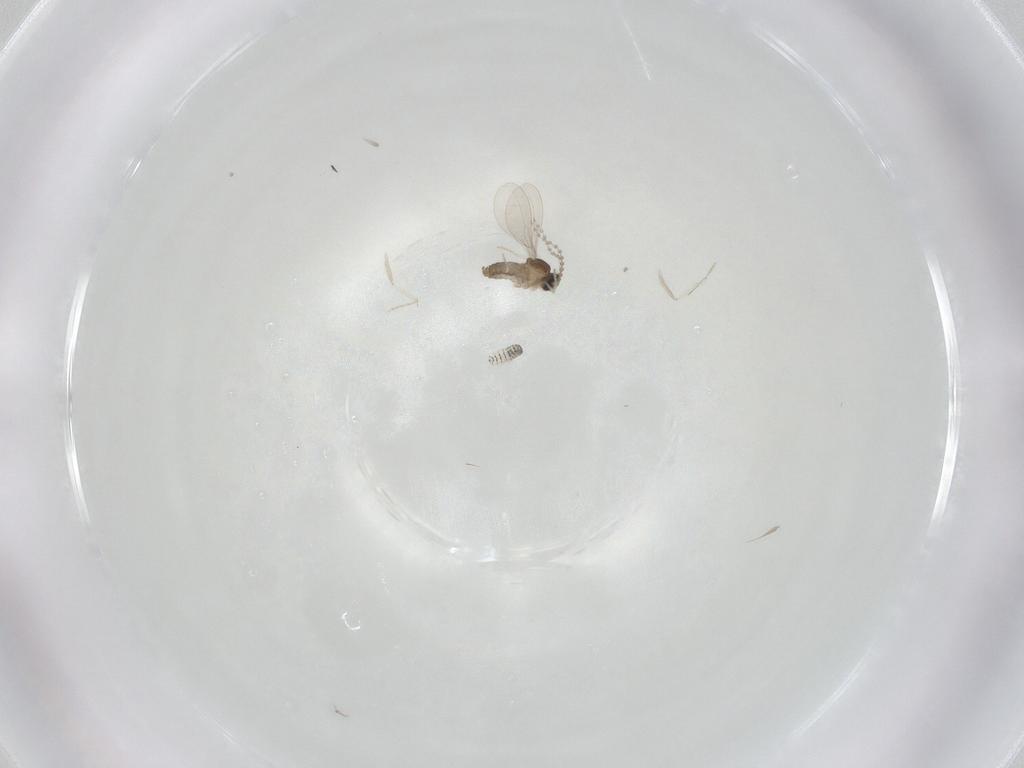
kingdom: Animalia
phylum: Arthropoda
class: Insecta
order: Diptera
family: Cecidomyiidae
